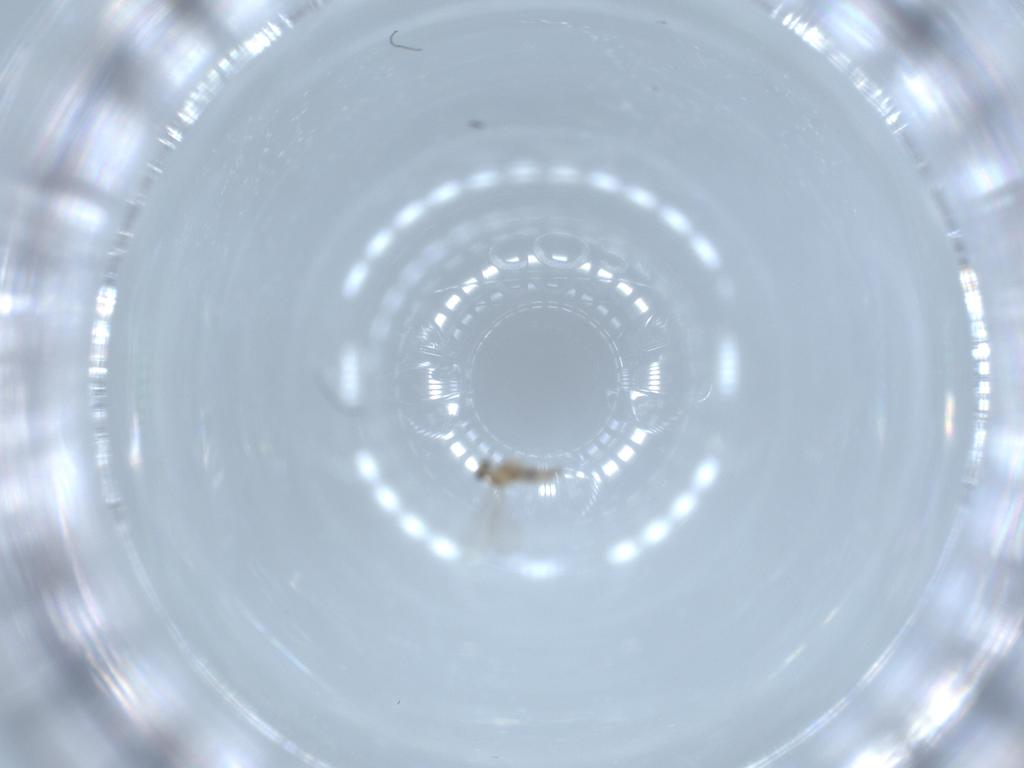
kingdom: Animalia
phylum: Arthropoda
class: Insecta
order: Diptera
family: Cecidomyiidae
